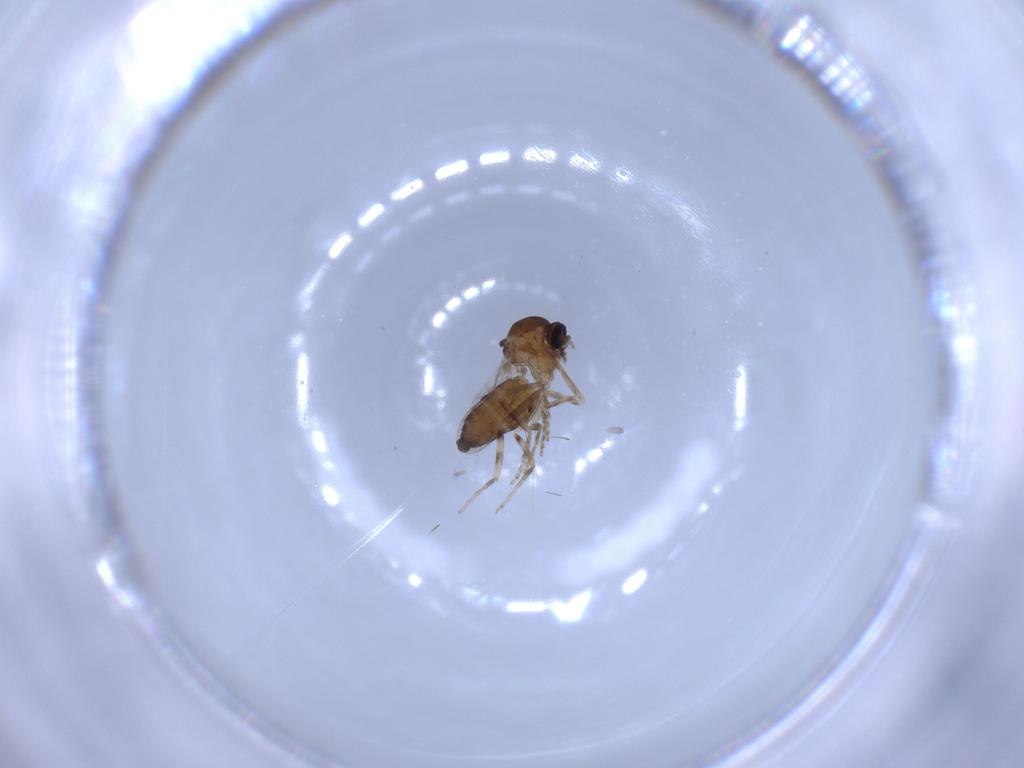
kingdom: Animalia
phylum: Arthropoda
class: Insecta
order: Diptera
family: Ceratopogonidae
